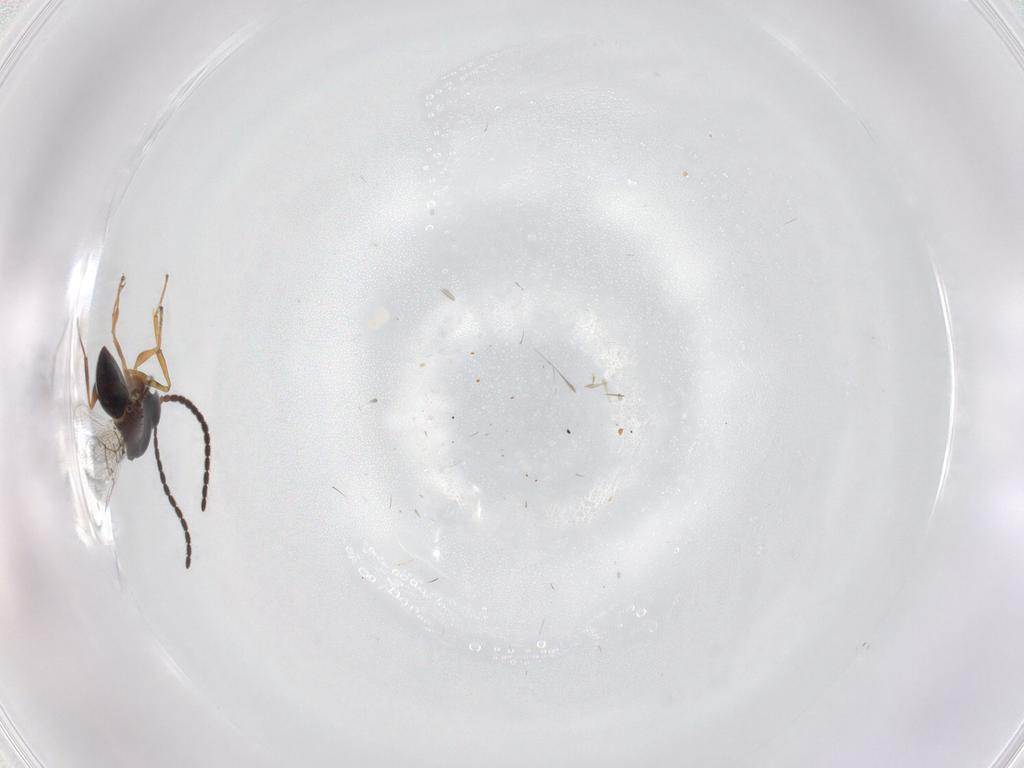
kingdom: Animalia
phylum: Arthropoda
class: Insecta
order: Hymenoptera
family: Figitidae
